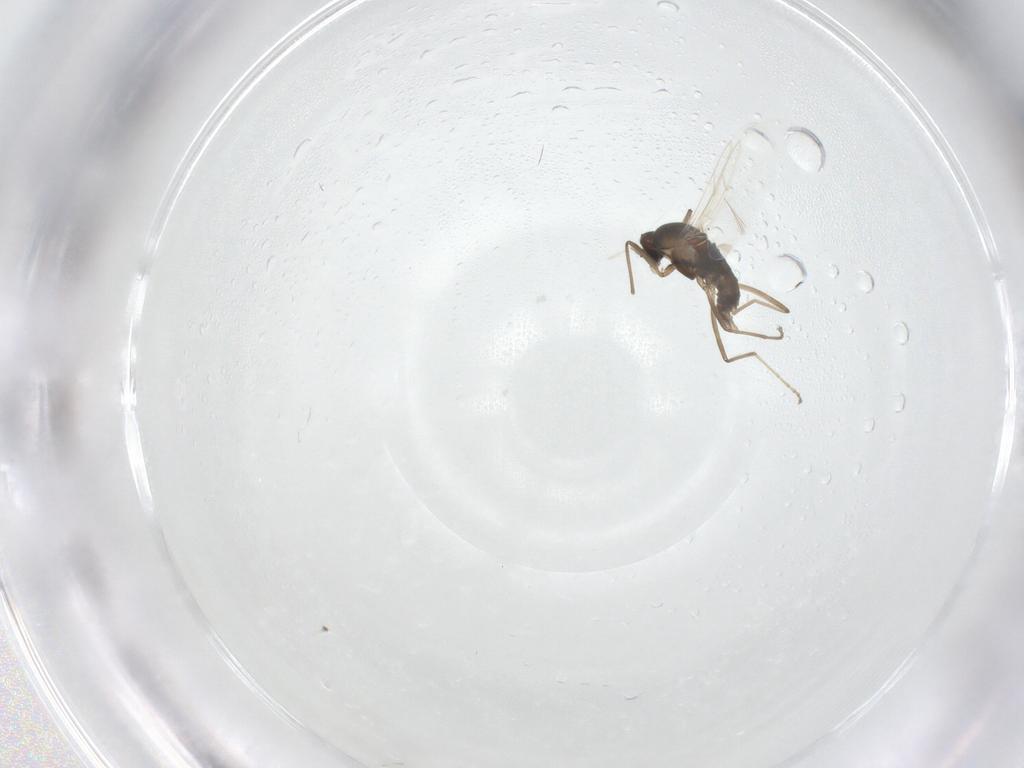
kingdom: Animalia
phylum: Arthropoda
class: Insecta
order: Diptera
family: Cecidomyiidae
